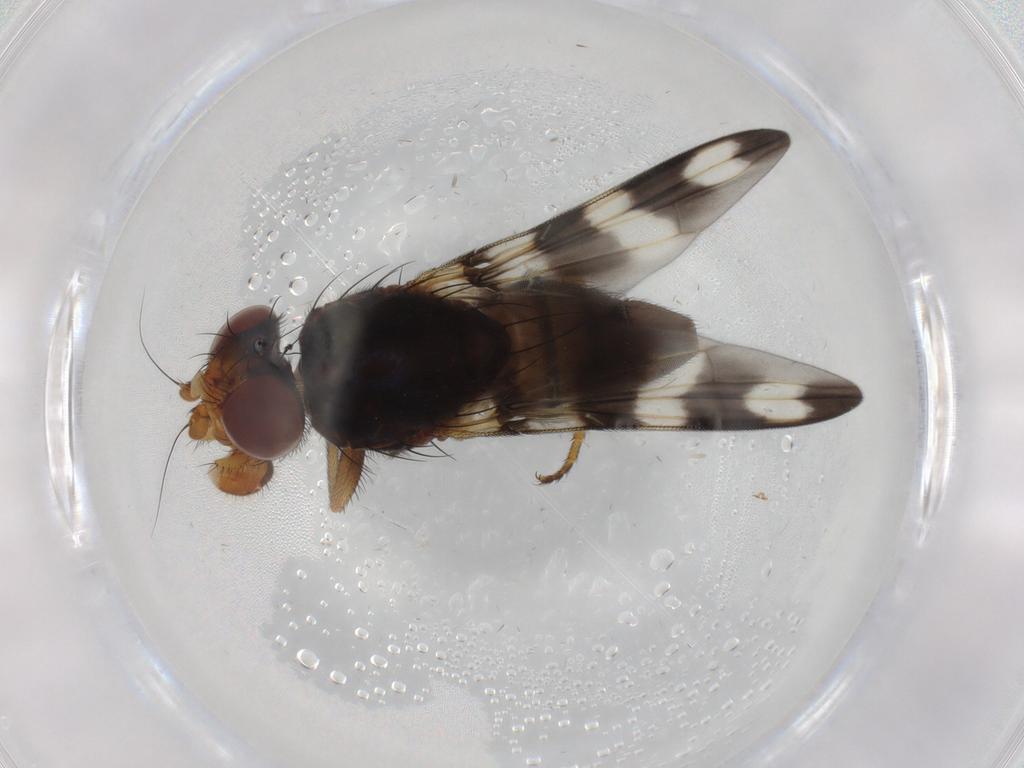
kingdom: Animalia
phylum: Arthropoda
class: Insecta
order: Diptera
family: Ceratopogonidae
